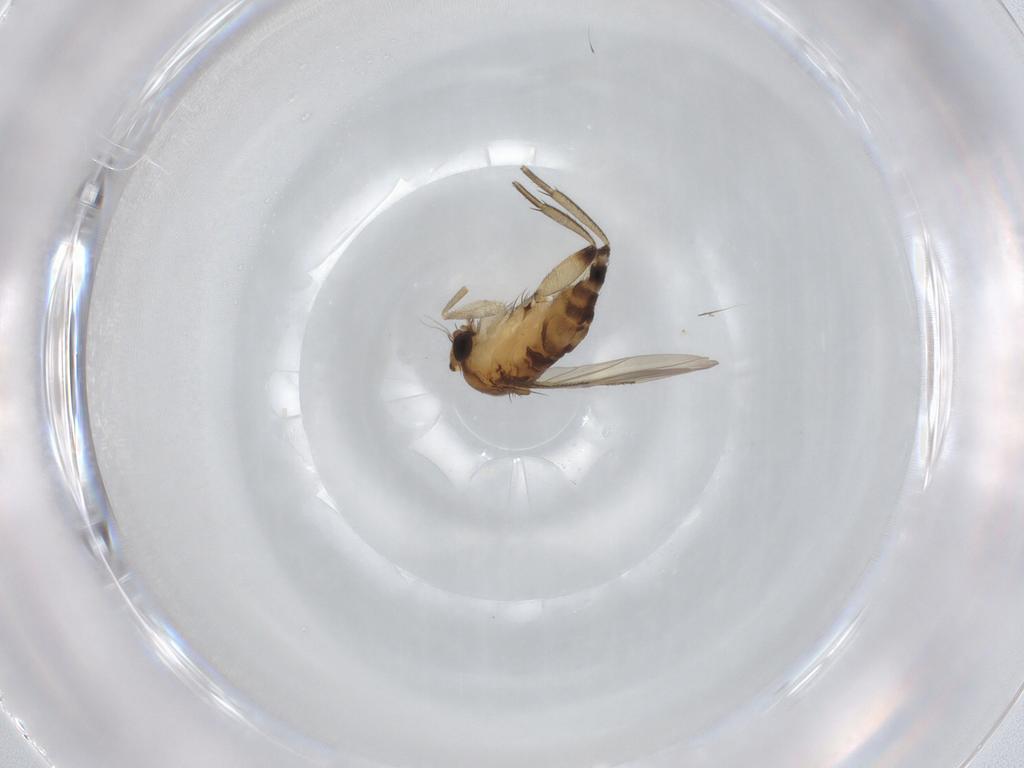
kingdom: Animalia
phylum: Arthropoda
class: Insecta
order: Diptera
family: Phoridae
